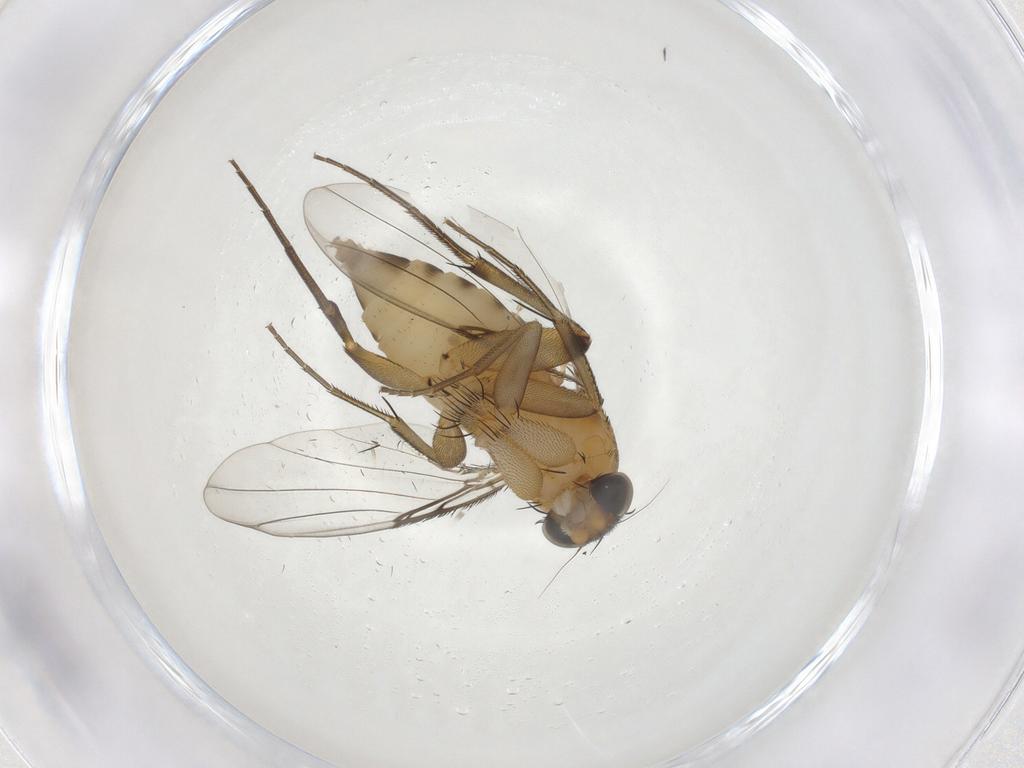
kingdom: Animalia
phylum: Arthropoda
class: Insecta
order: Diptera
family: Phoridae
